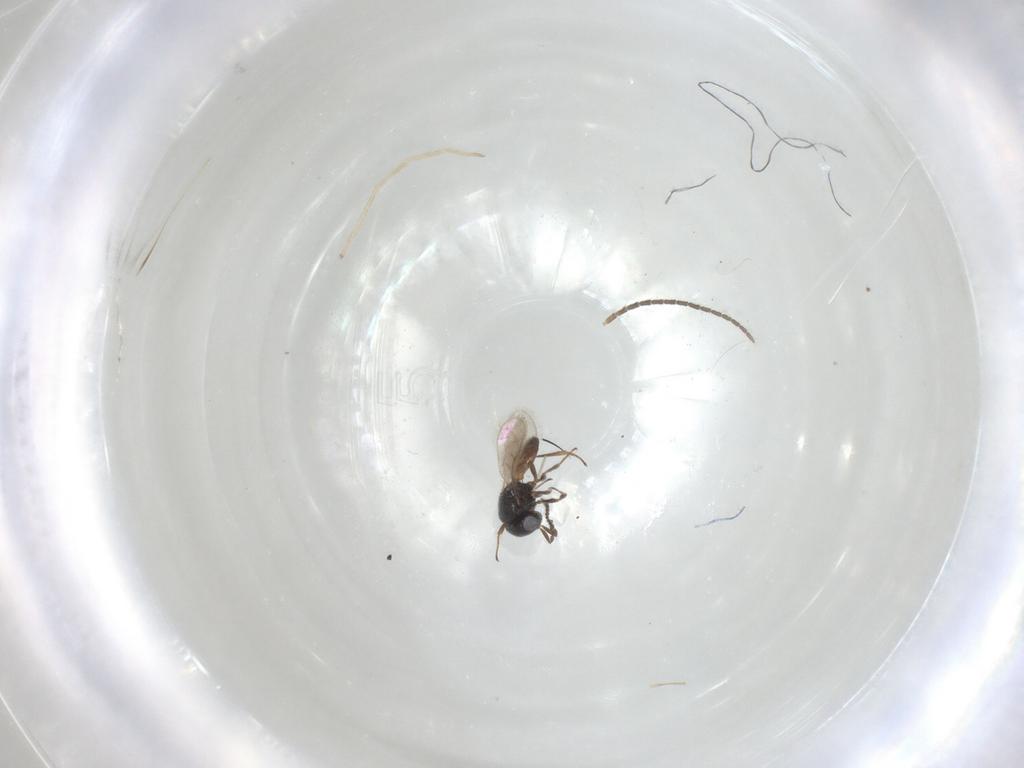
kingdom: Animalia
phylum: Arthropoda
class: Insecta
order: Hymenoptera
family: Scelionidae
